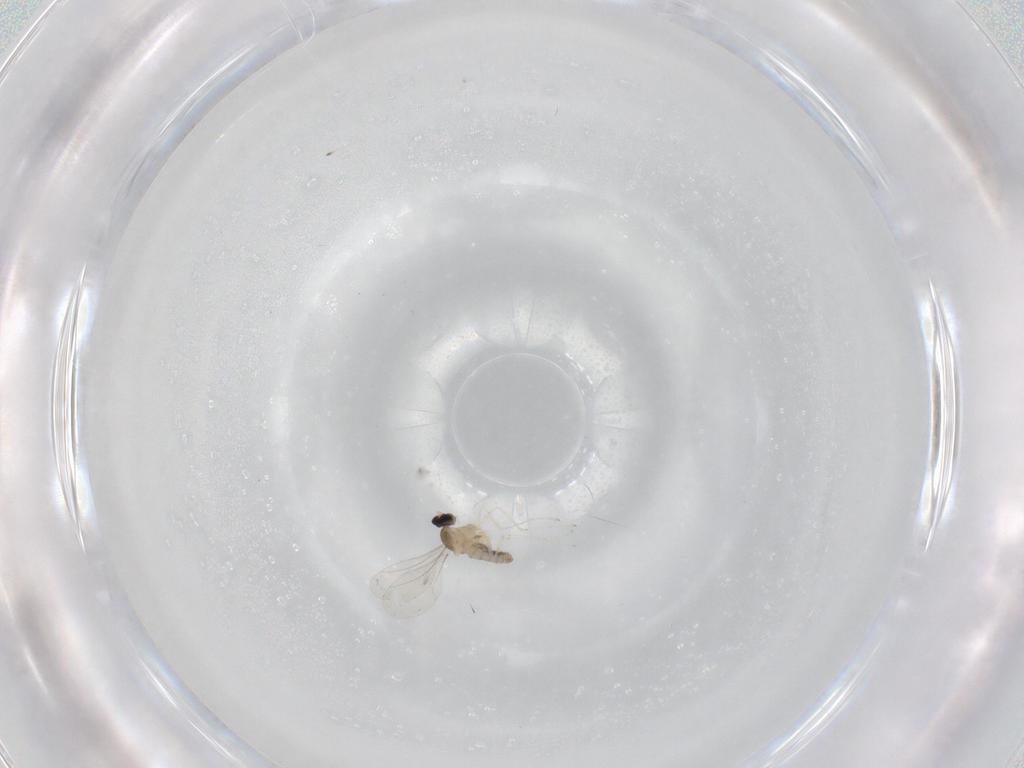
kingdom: Animalia
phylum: Arthropoda
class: Insecta
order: Diptera
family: Cecidomyiidae
